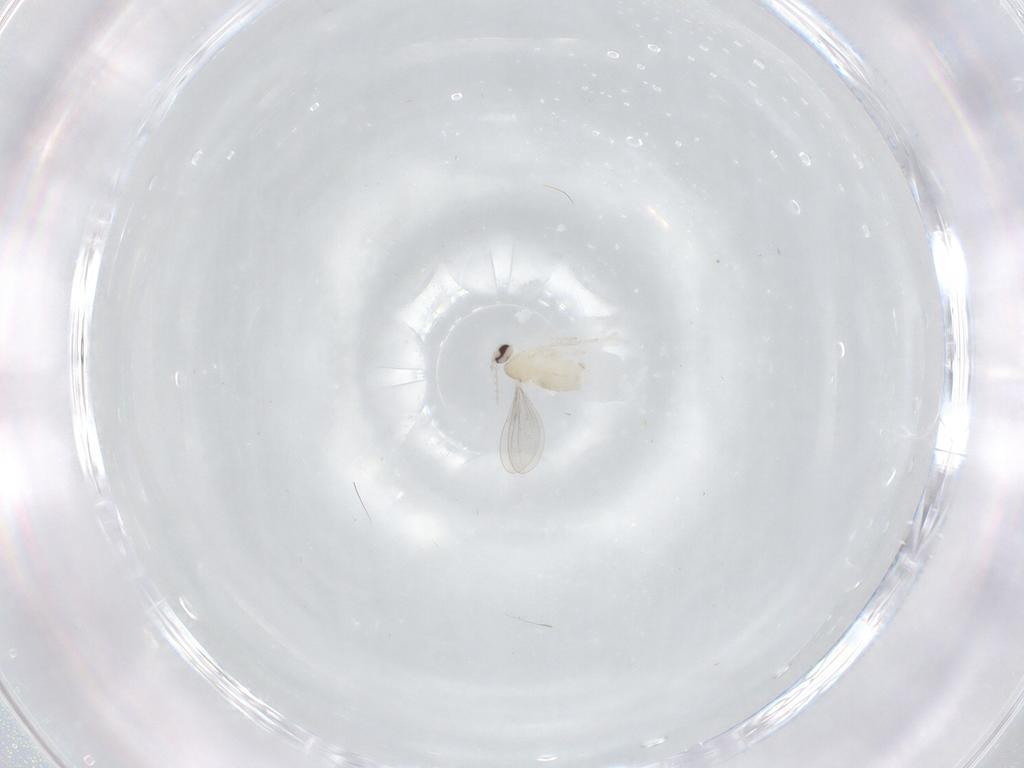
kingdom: Animalia
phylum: Arthropoda
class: Insecta
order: Diptera
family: Cecidomyiidae
